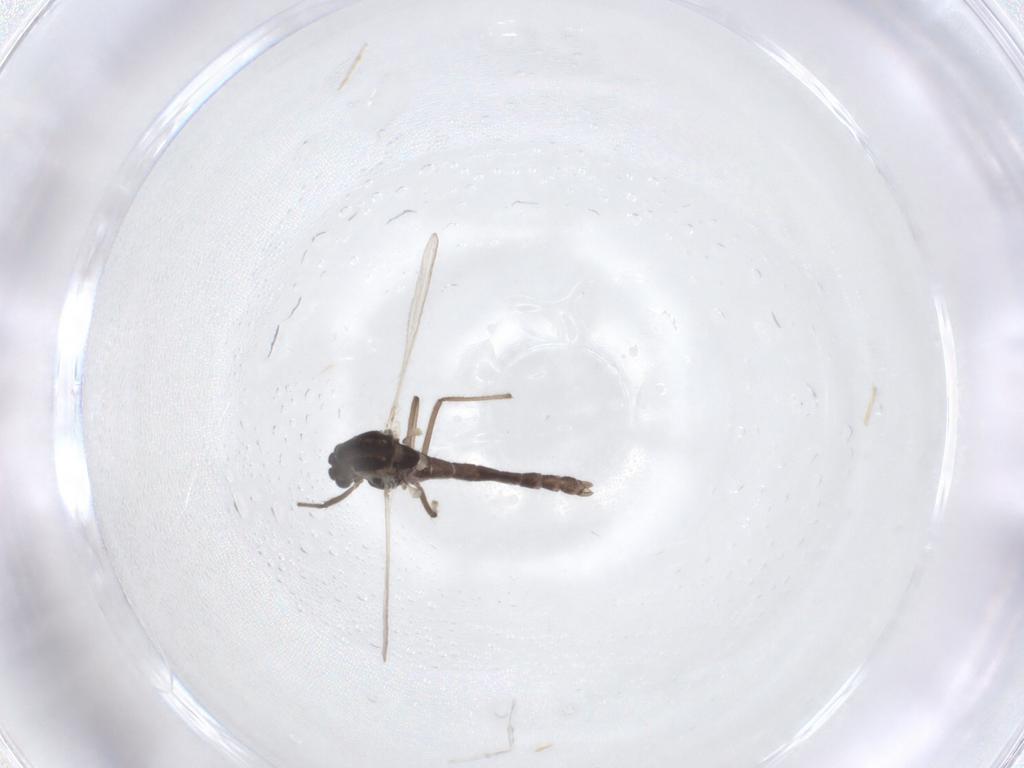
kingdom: Animalia
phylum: Arthropoda
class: Insecta
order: Diptera
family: Chironomidae
